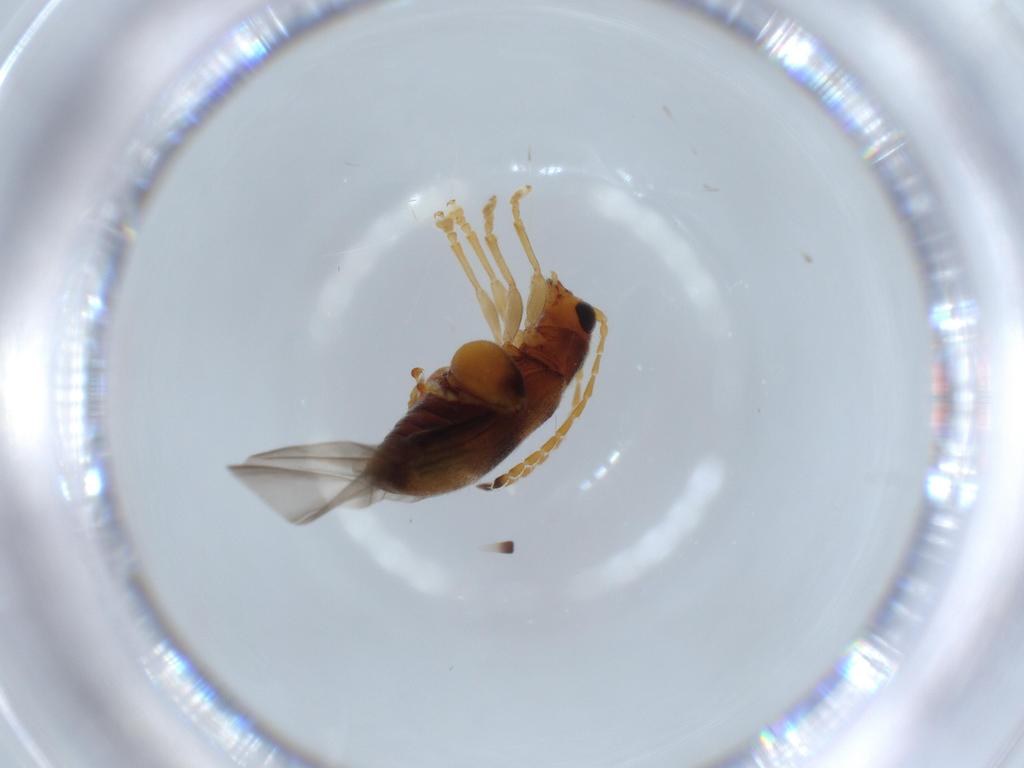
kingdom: Animalia
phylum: Arthropoda
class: Insecta
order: Coleoptera
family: Chrysomelidae
